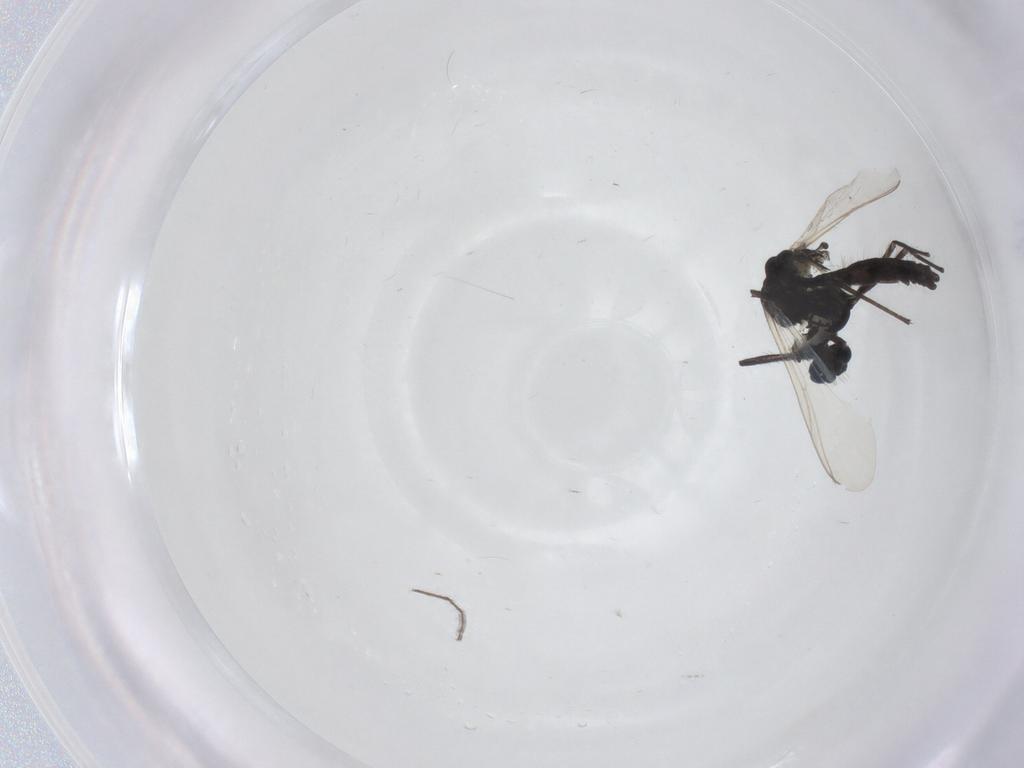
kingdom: Animalia
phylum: Arthropoda
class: Insecta
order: Diptera
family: Chironomidae
